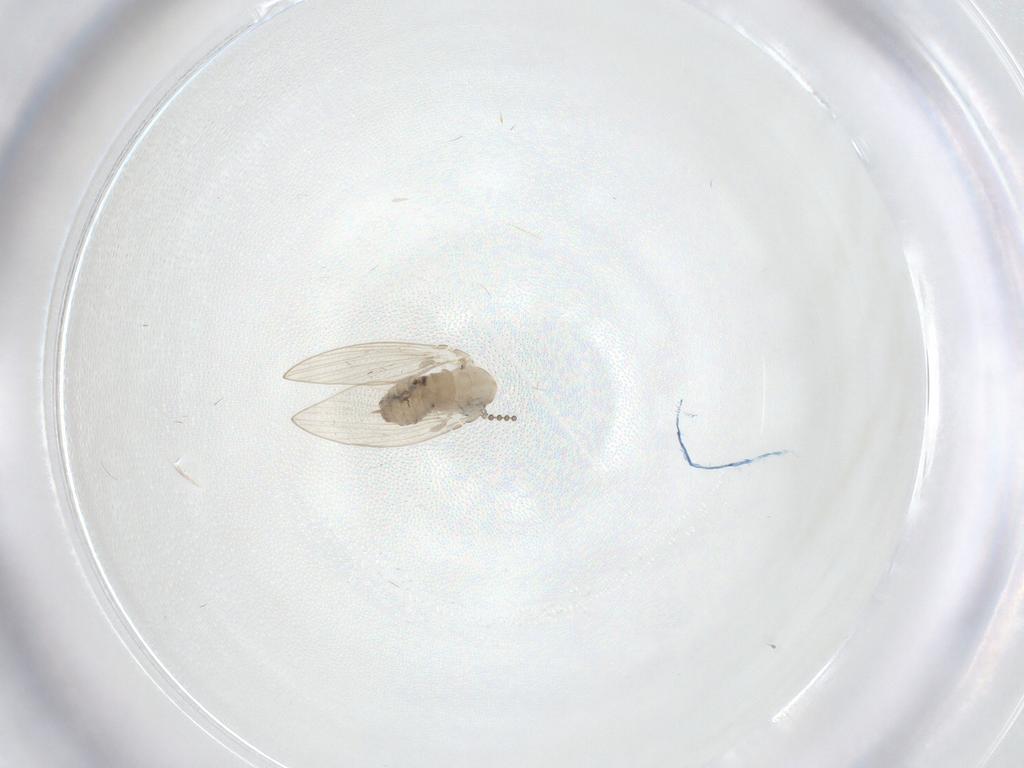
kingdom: Animalia
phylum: Arthropoda
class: Insecta
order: Diptera
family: Psychodidae
